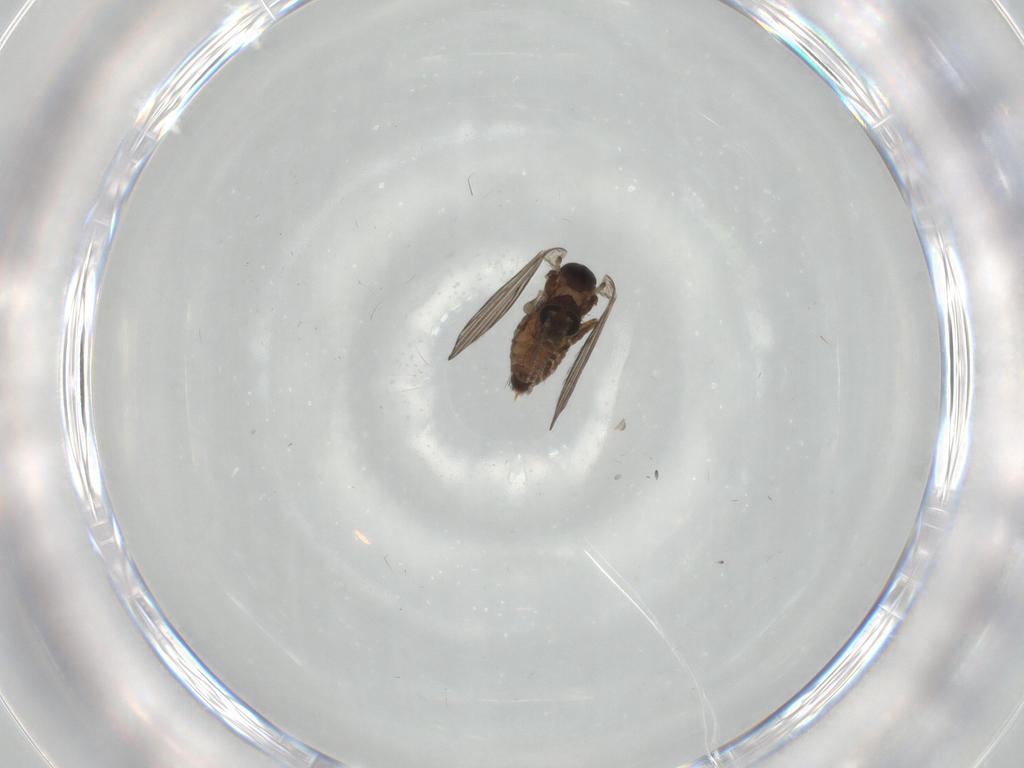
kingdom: Animalia
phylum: Arthropoda
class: Insecta
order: Diptera
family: Psychodidae
